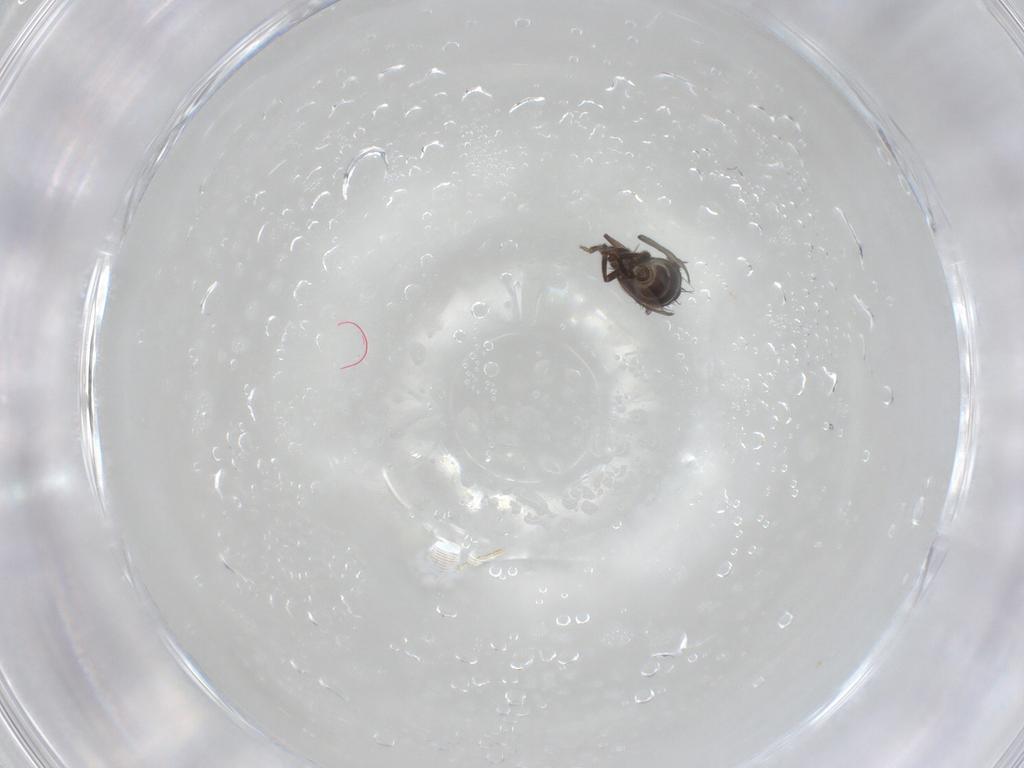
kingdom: Animalia
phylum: Arthropoda
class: Insecta
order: Diptera
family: Milichiidae
